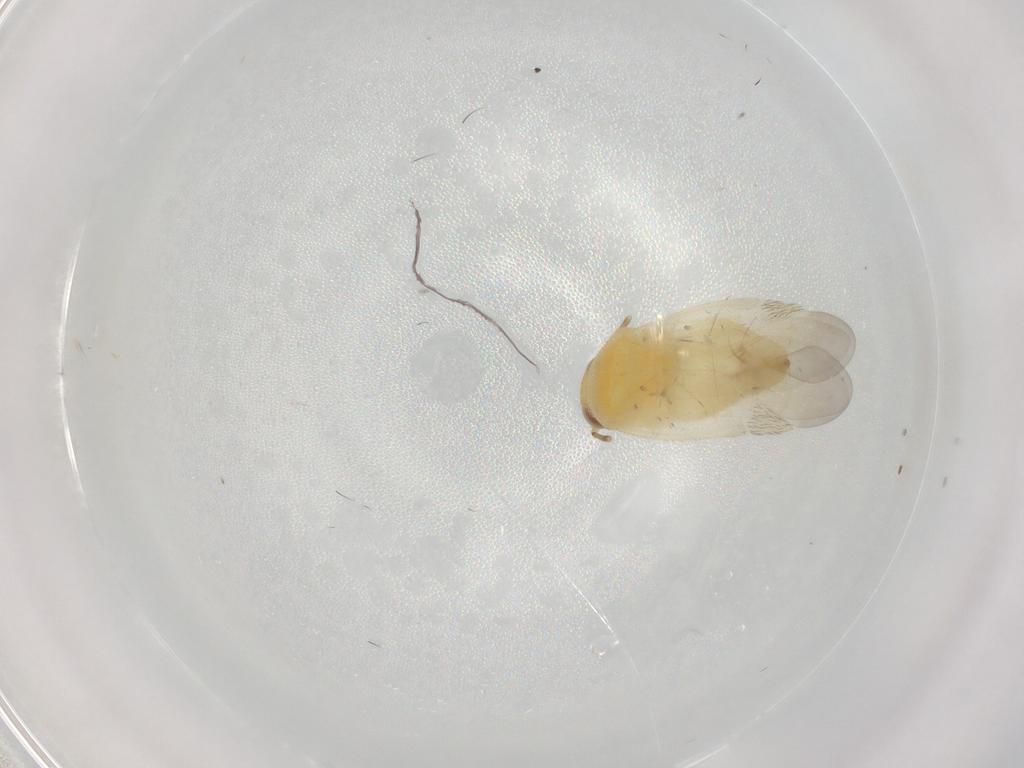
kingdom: Animalia
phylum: Arthropoda
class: Insecta
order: Hemiptera
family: Miridae
